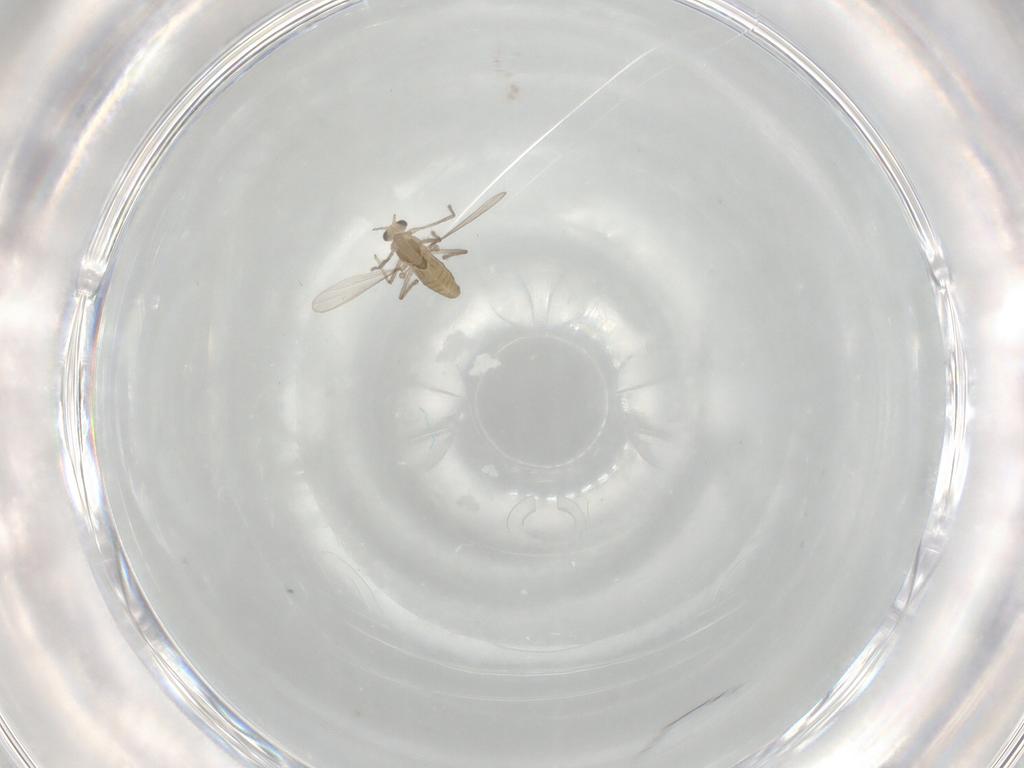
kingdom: Animalia
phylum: Arthropoda
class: Insecta
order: Diptera
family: Chironomidae
